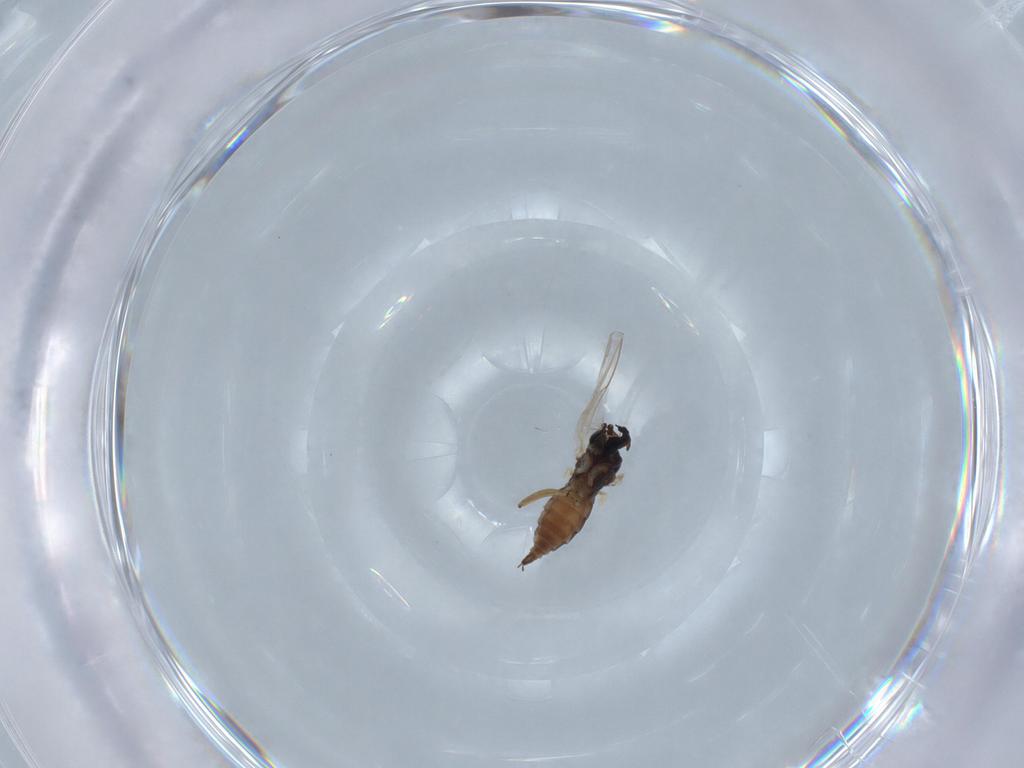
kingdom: Animalia
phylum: Arthropoda
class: Insecta
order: Diptera
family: Sciaridae
